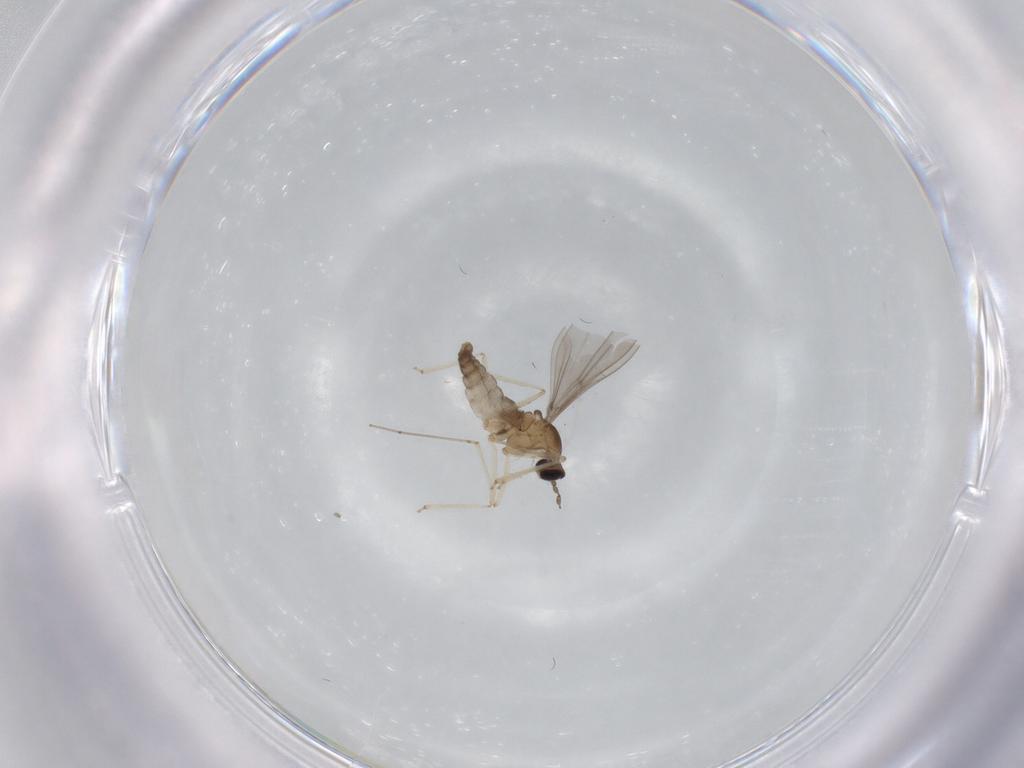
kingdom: Animalia
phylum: Arthropoda
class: Insecta
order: Diptera
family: Cecidomyiidae
